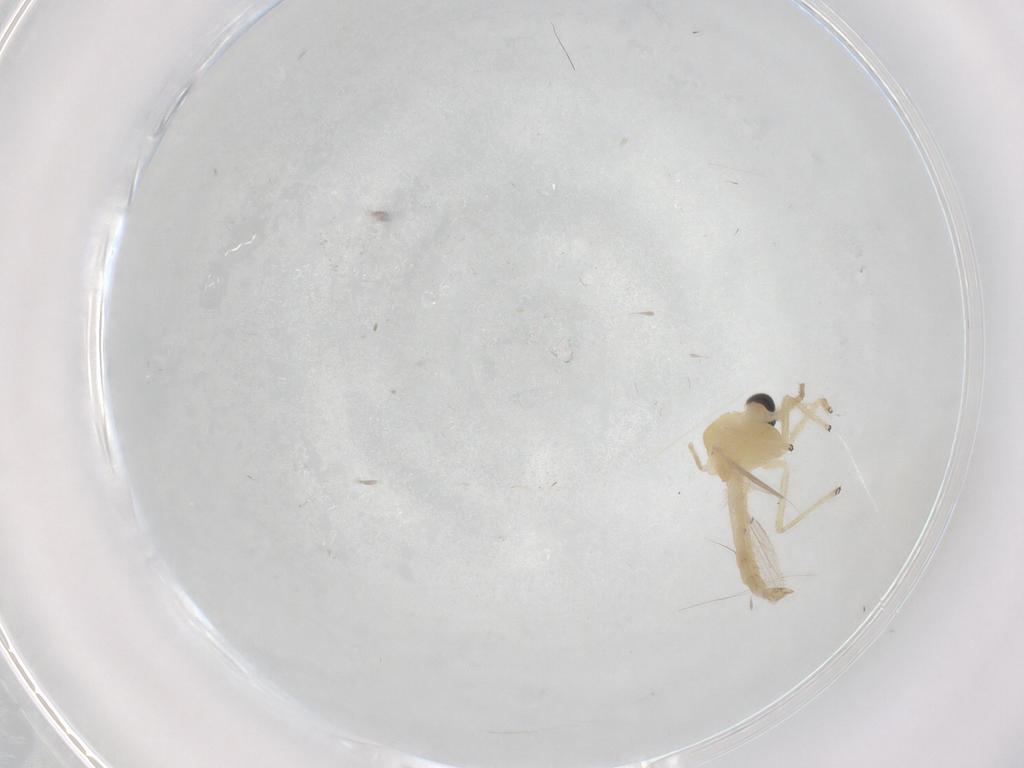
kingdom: Animalia
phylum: Arthropoda
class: Insecta
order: Diptera
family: Chironomidae
